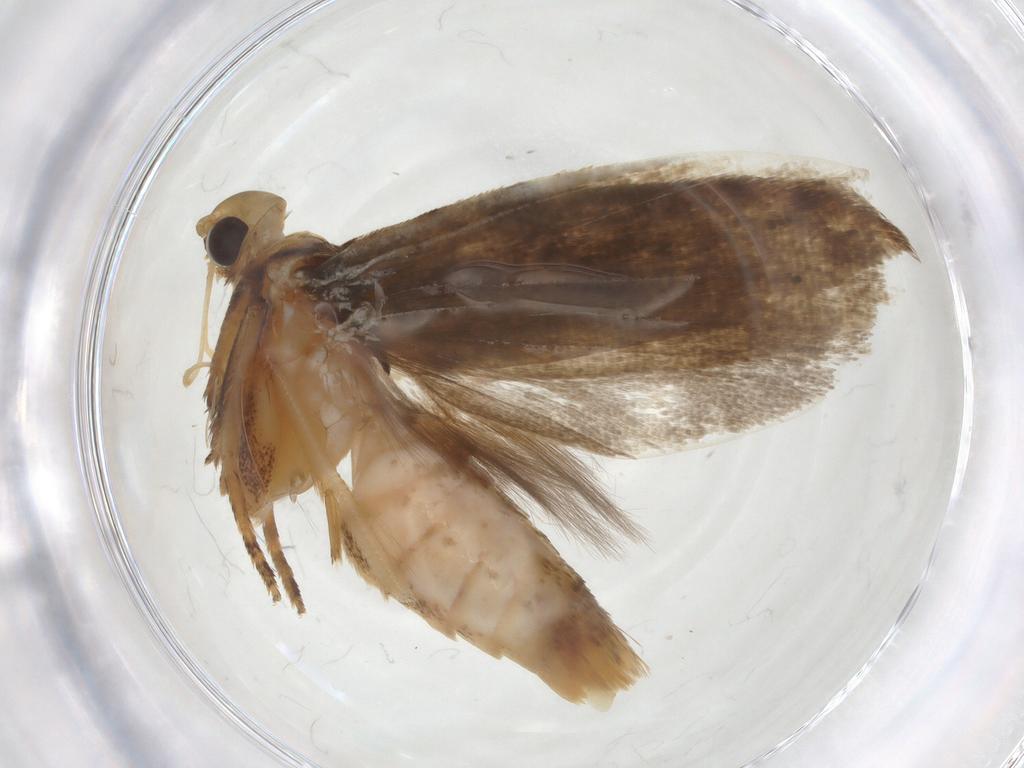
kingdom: Animalia
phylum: Arthropoda
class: Insecta
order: Lepidoptera
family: Gelechiidae
